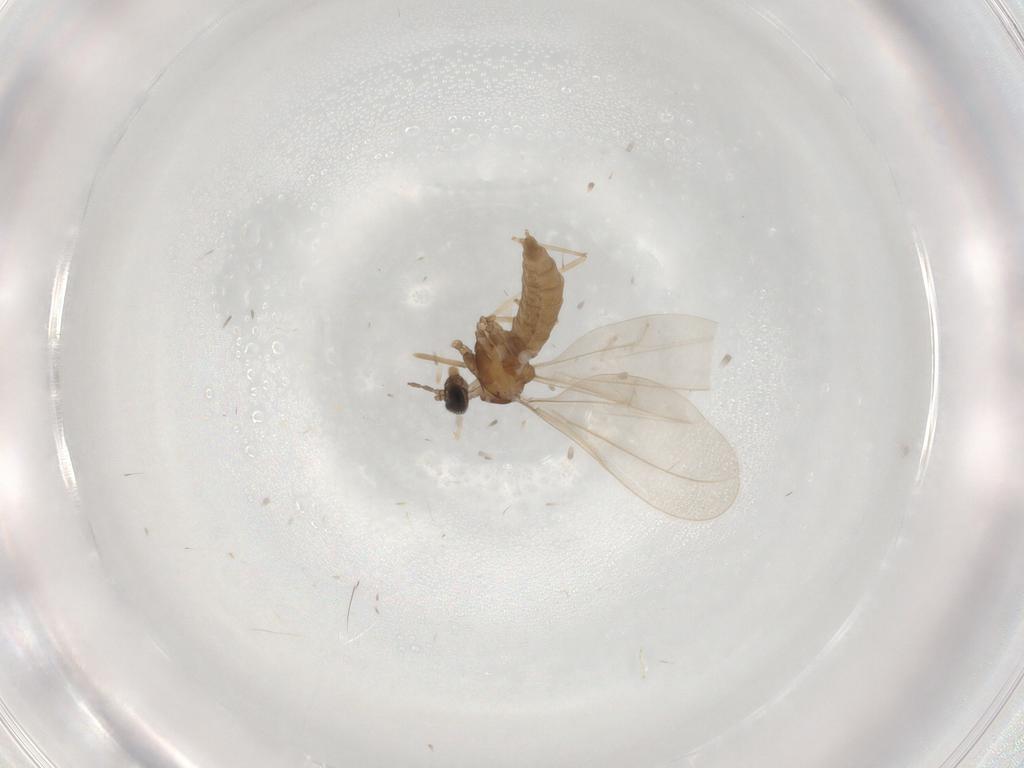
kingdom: Animalia
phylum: Arthropoda
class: Insecta
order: Diptera
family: Cecidomyiidae
